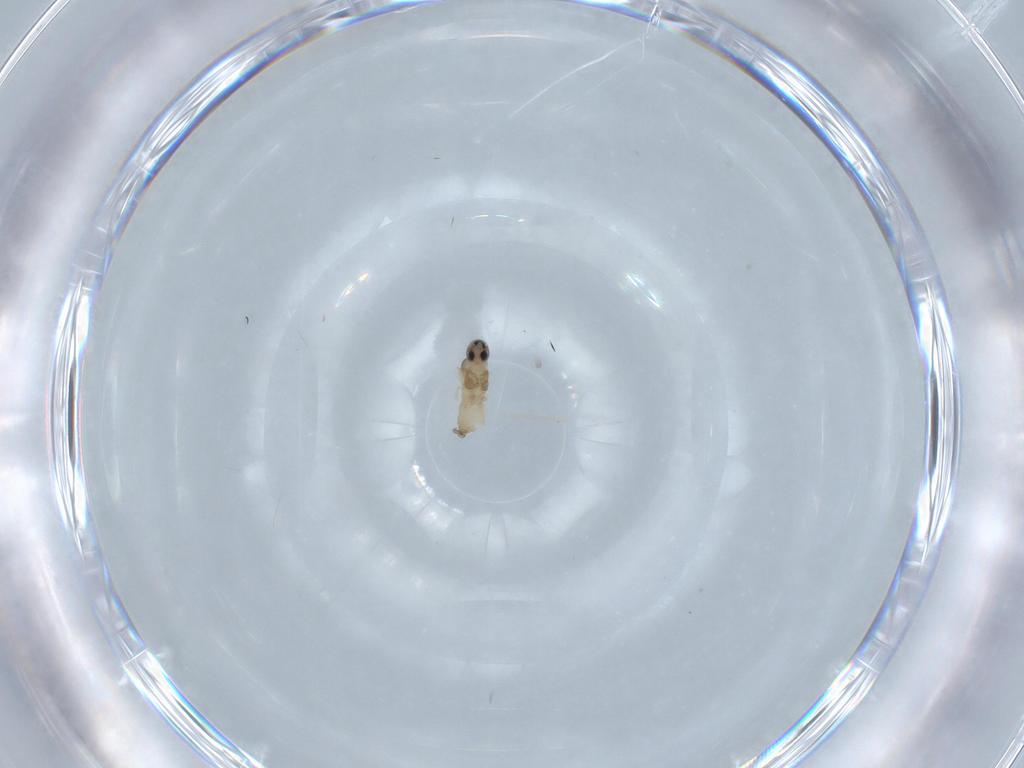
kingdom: Animalia
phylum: Arthropoda
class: Insecta
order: Diptera
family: Cecidomyiidae
